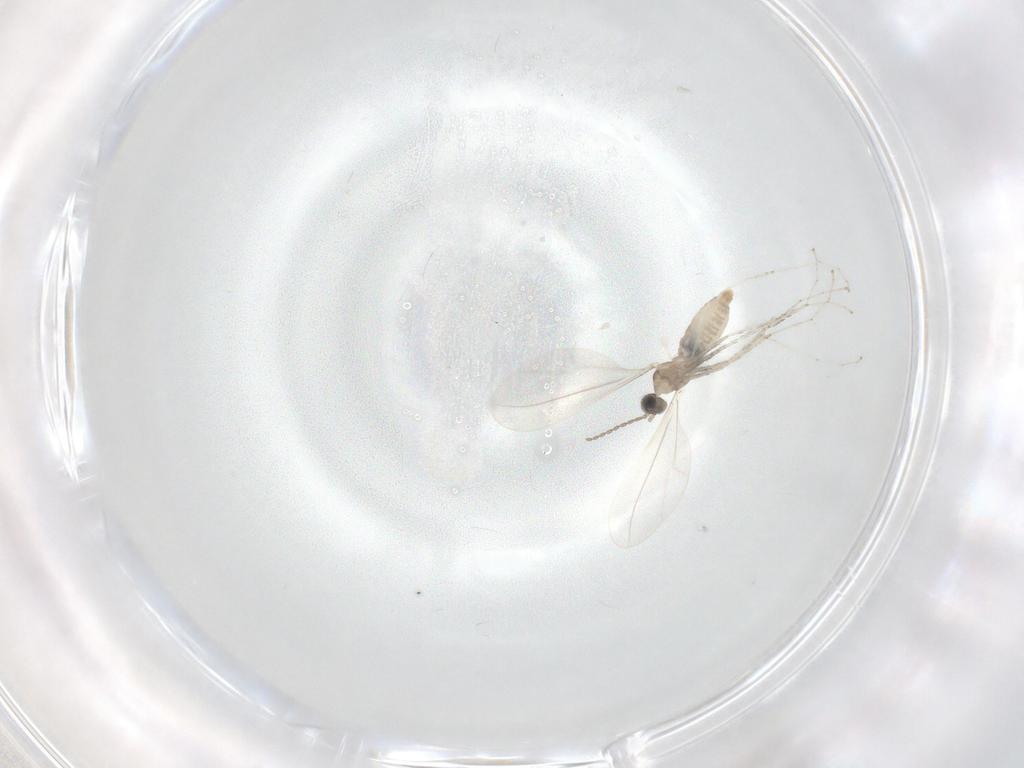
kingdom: Animalia
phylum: Arthropoda
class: Insecta
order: Diptera
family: Cecidomyiidae
